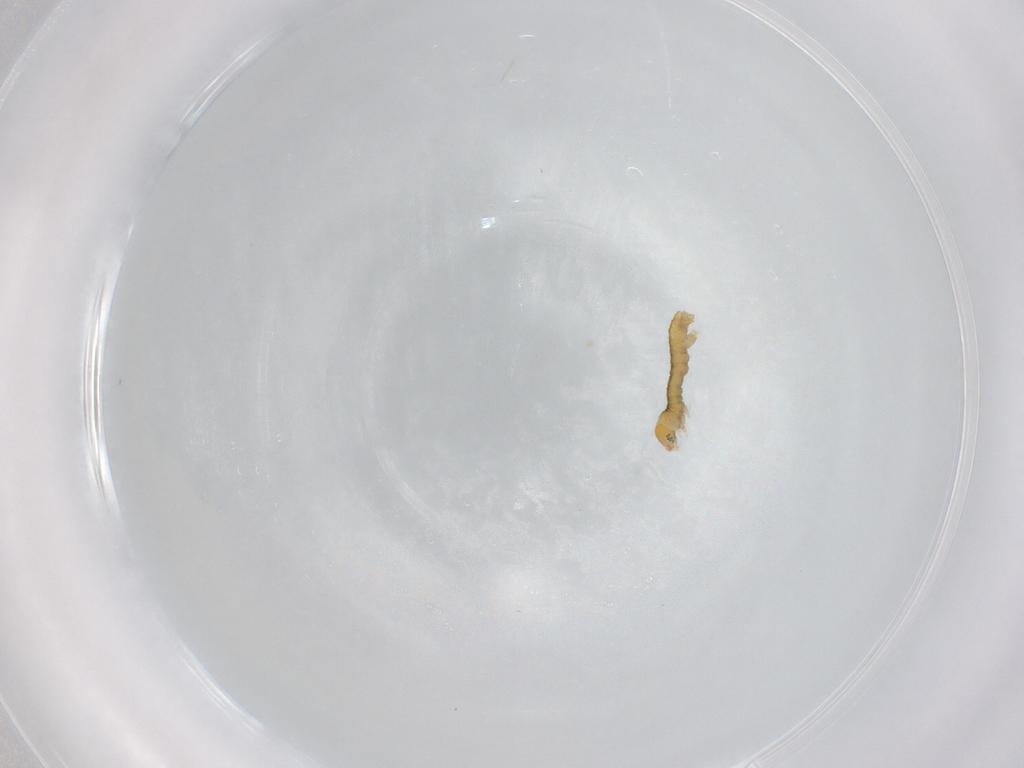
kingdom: Animalia
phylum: Arthropoda
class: Insecta
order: Lepidoptera
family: Geometridae
